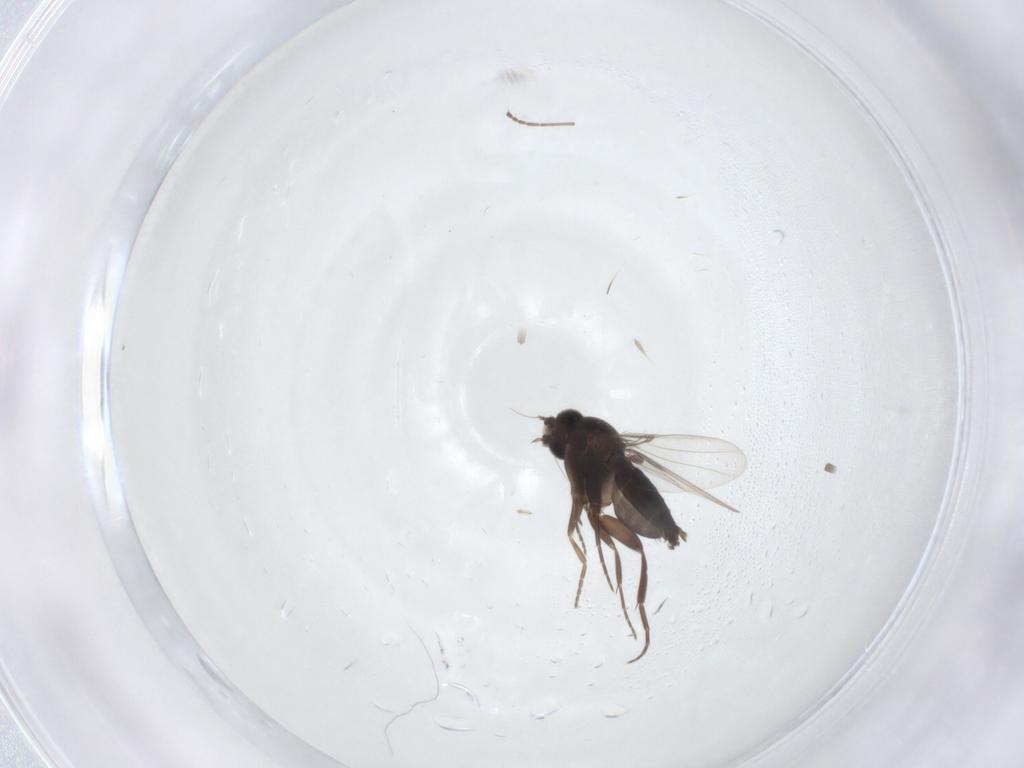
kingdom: Animalia
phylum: Arthropoda
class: Insecta
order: Diptera
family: Phoridae
